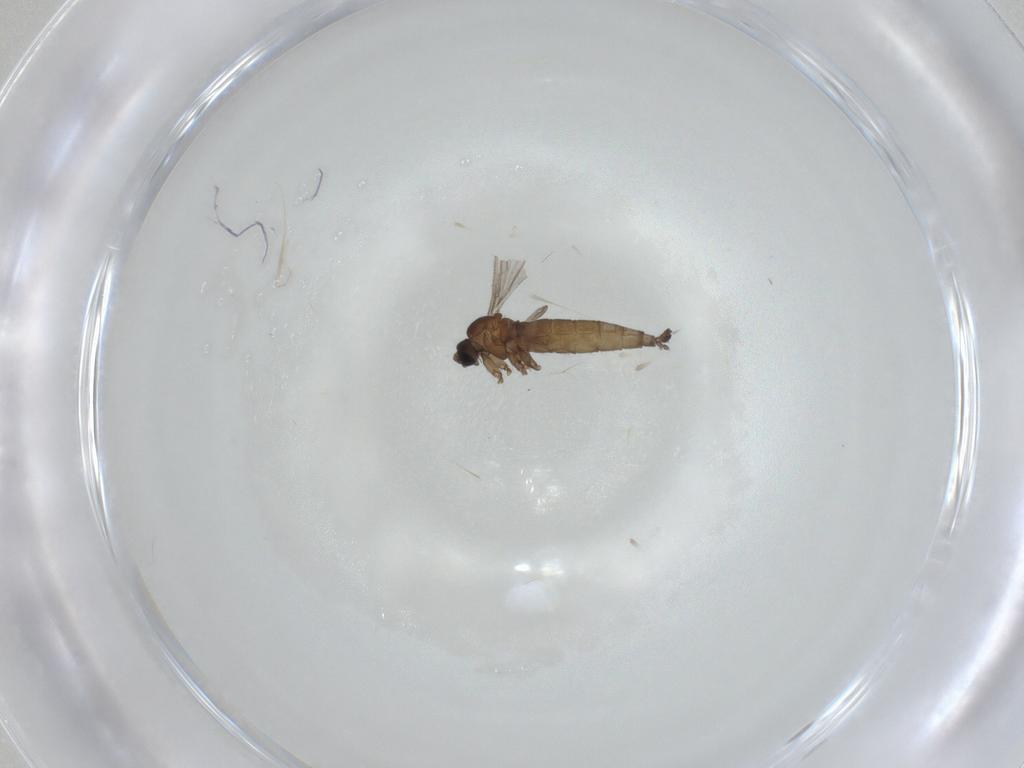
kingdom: Animalia
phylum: Arthropoda
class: Insecta
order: Diptera
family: Sciaridae
